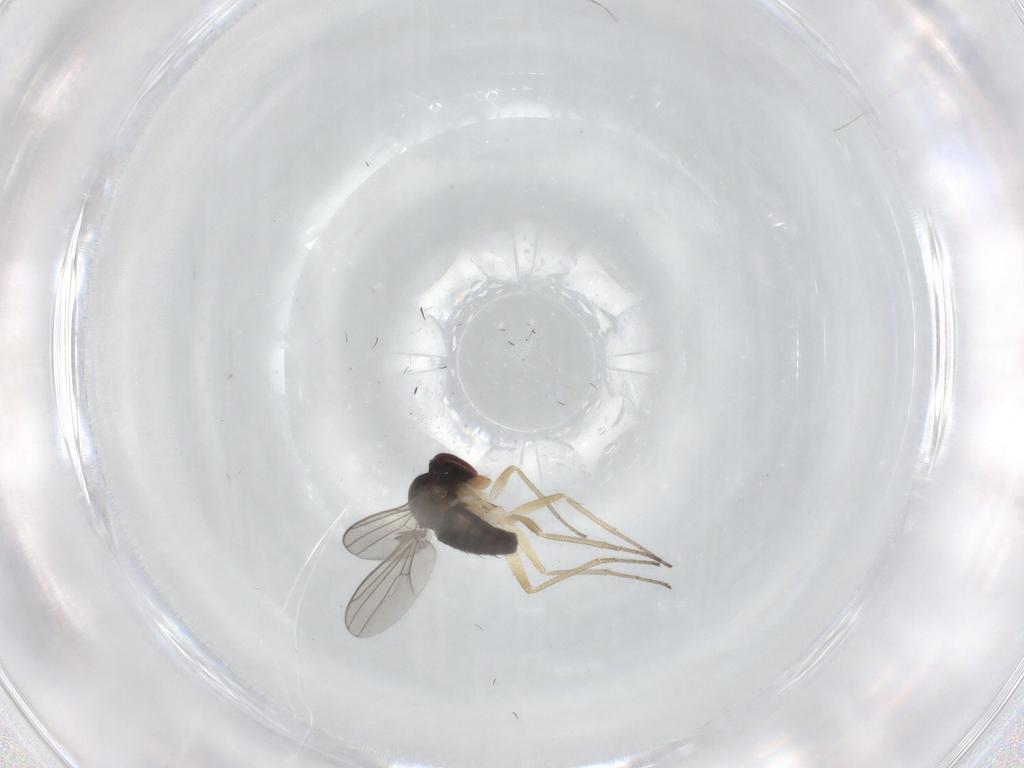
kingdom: Animalia
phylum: Arthropoda
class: Insecta
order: Diptera
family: Dolichopodidae
